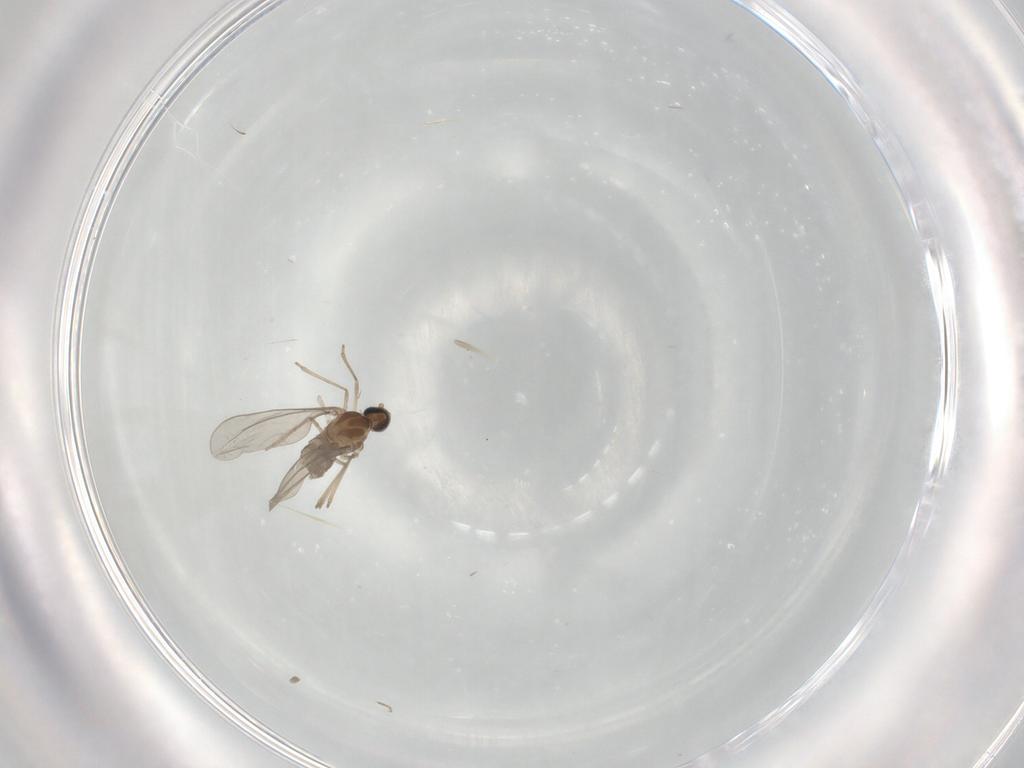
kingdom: Animalia
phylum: Arthropoda
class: Insecta
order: Diptera
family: Cecidomyiidae
